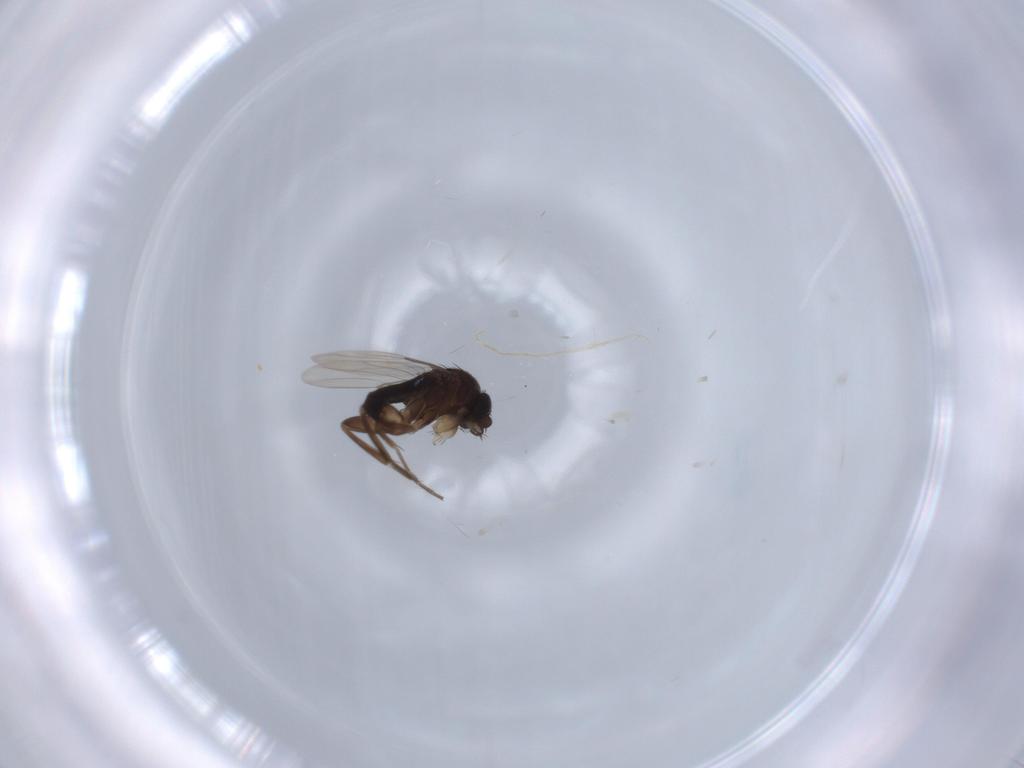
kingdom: Animalia
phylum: Arthropoda
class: Insecta
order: Diptera
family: Phoridae
